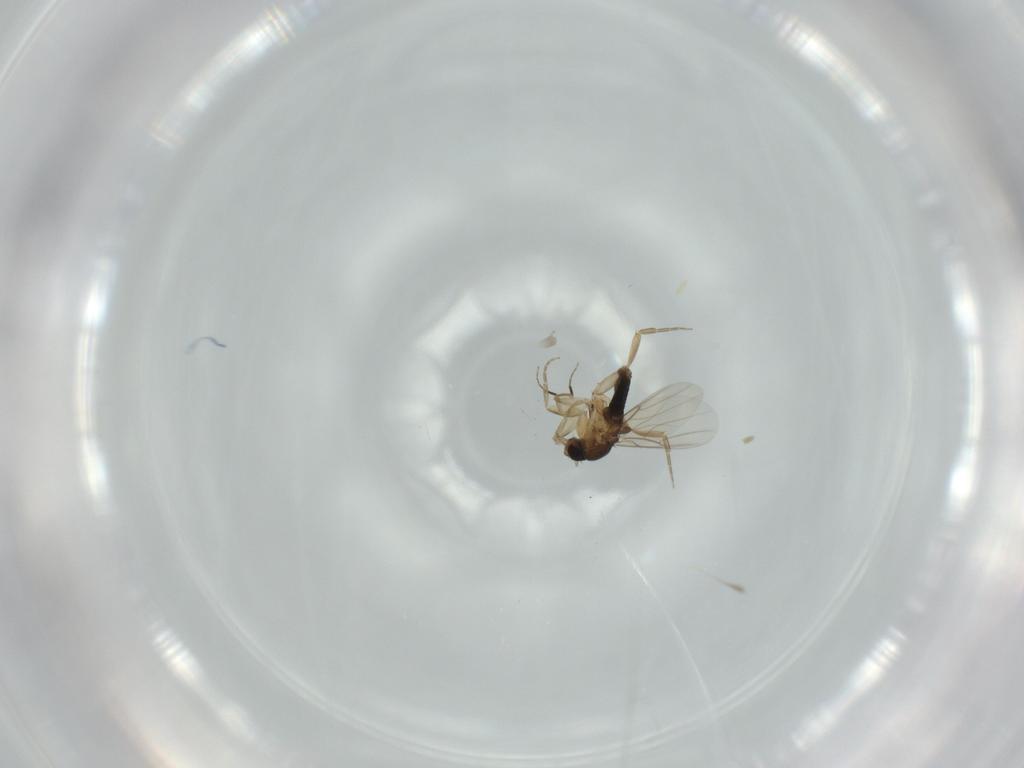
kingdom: Animalia
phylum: Arthropoda
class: Insecta
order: Diptera
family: Phoridae
